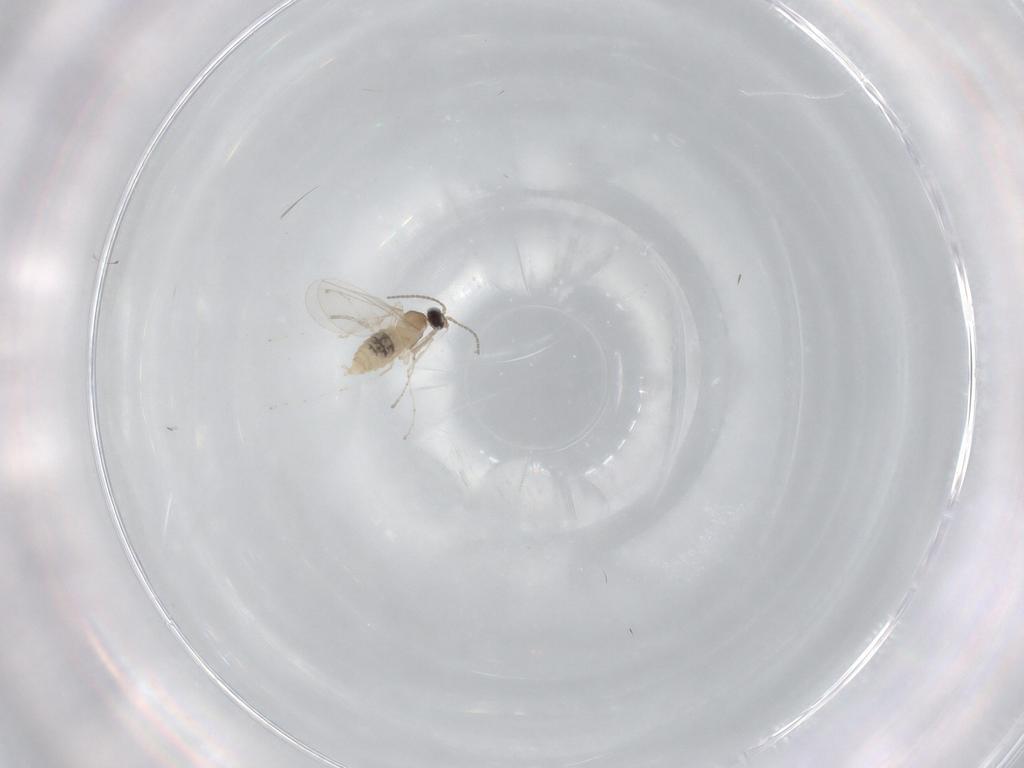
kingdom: Animalia
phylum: Arthropoda
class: Insecta
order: Diptera
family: Cecidomyiidae
